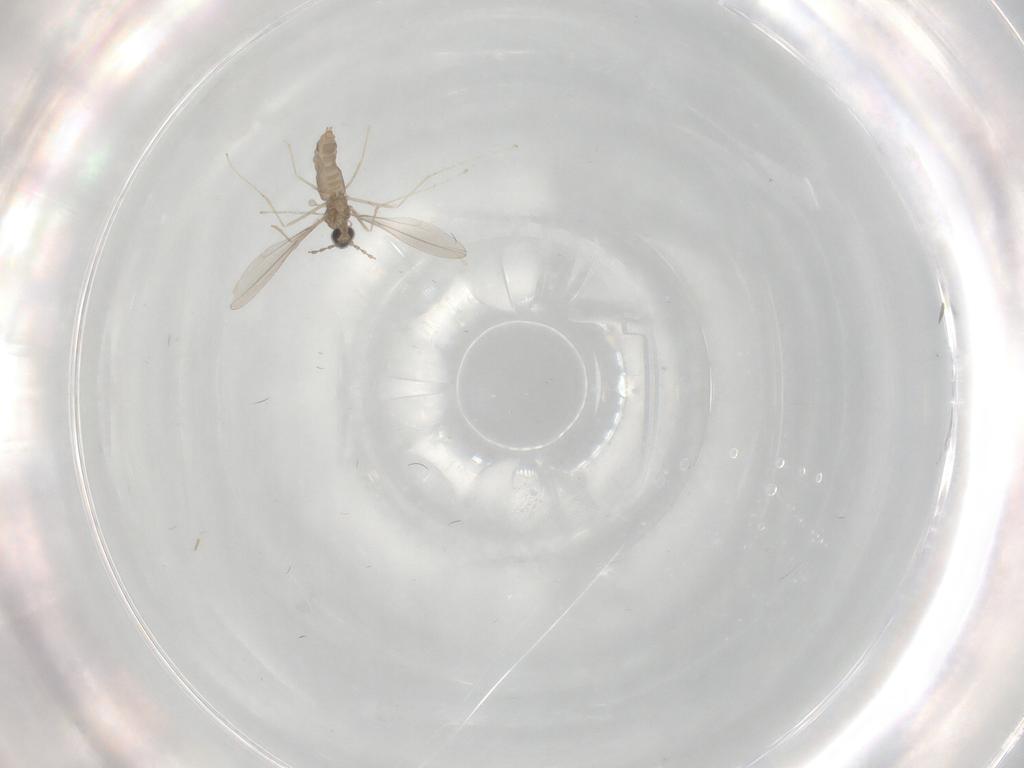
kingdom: Animalia
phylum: Arthropoda
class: Insecta
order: Diptera
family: Cecidomyiidae
